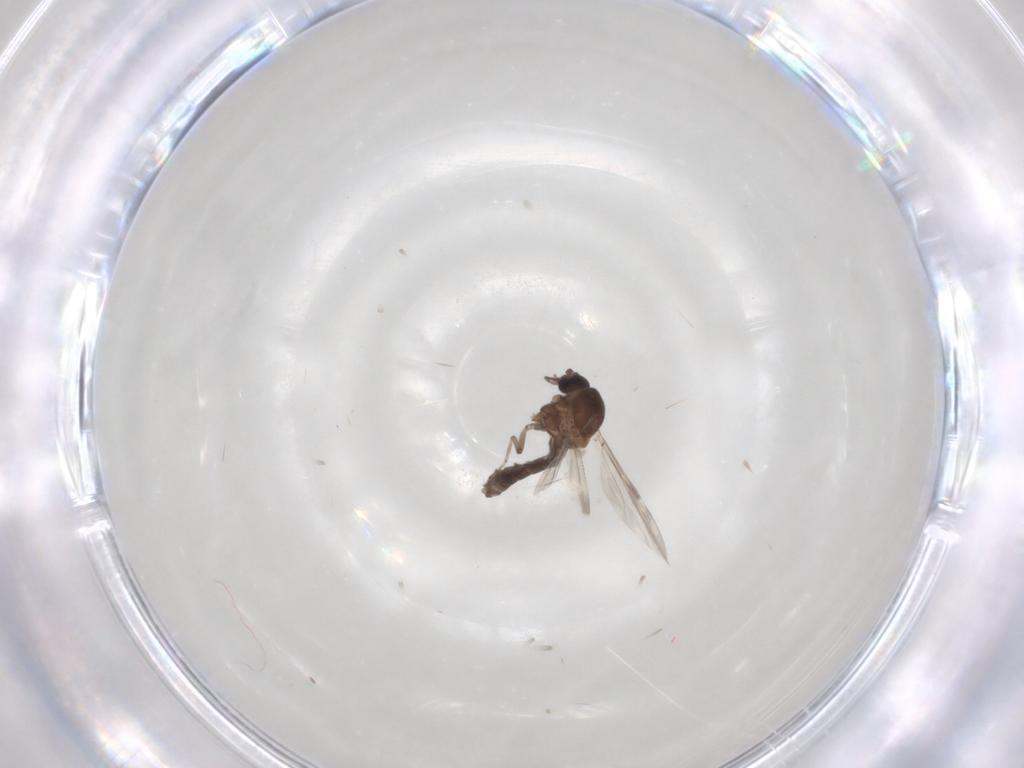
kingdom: Animalia
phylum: Arthropoda
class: Insecta
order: Diptera
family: Ceratopogonidae
